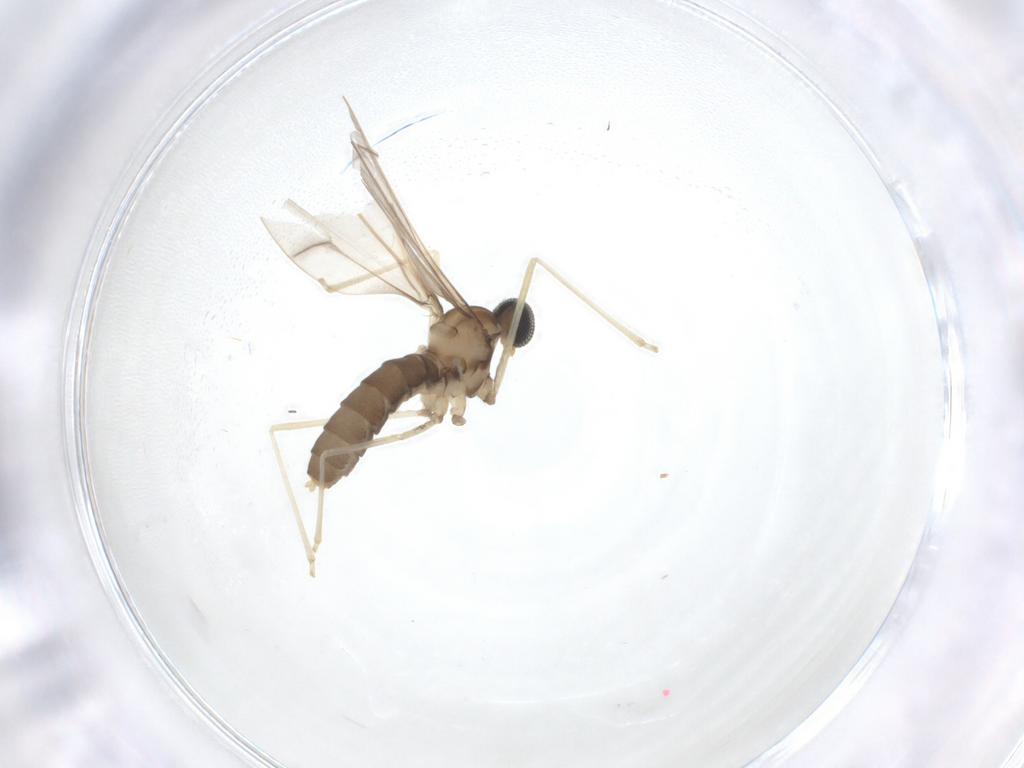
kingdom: Animalia
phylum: Arthropoda
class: Insecta
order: Diptera
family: Cecidomyiidae
